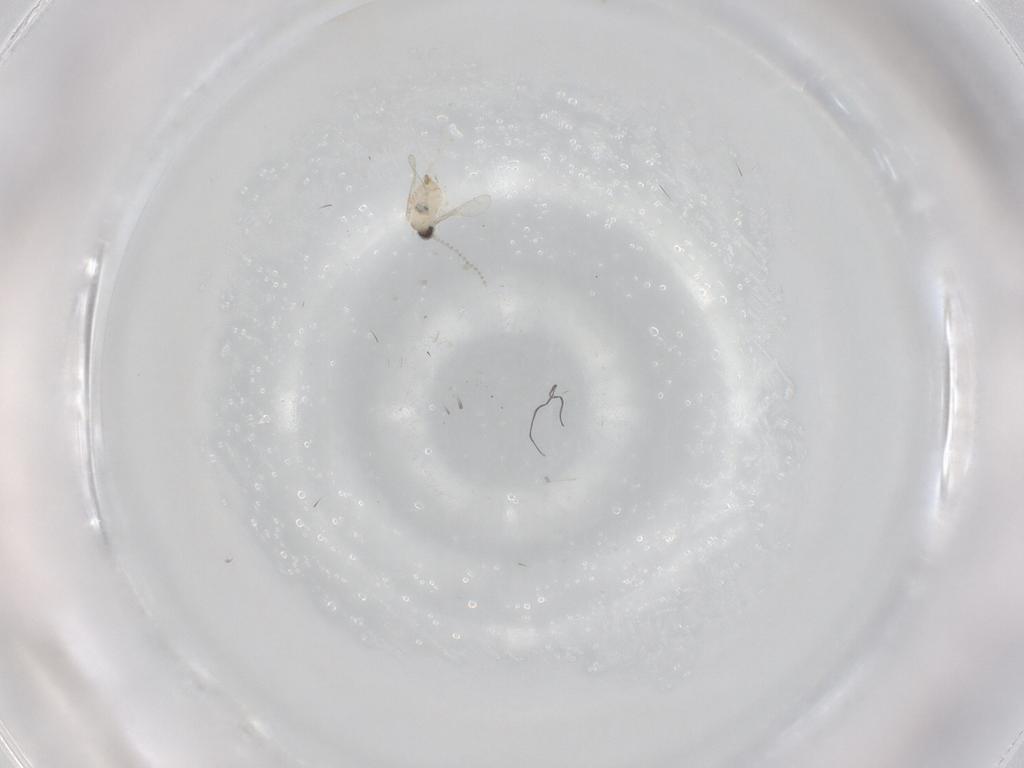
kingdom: Animalia
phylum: Arthropoda
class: Insecta
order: Diptera
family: Cecidomyiidae
